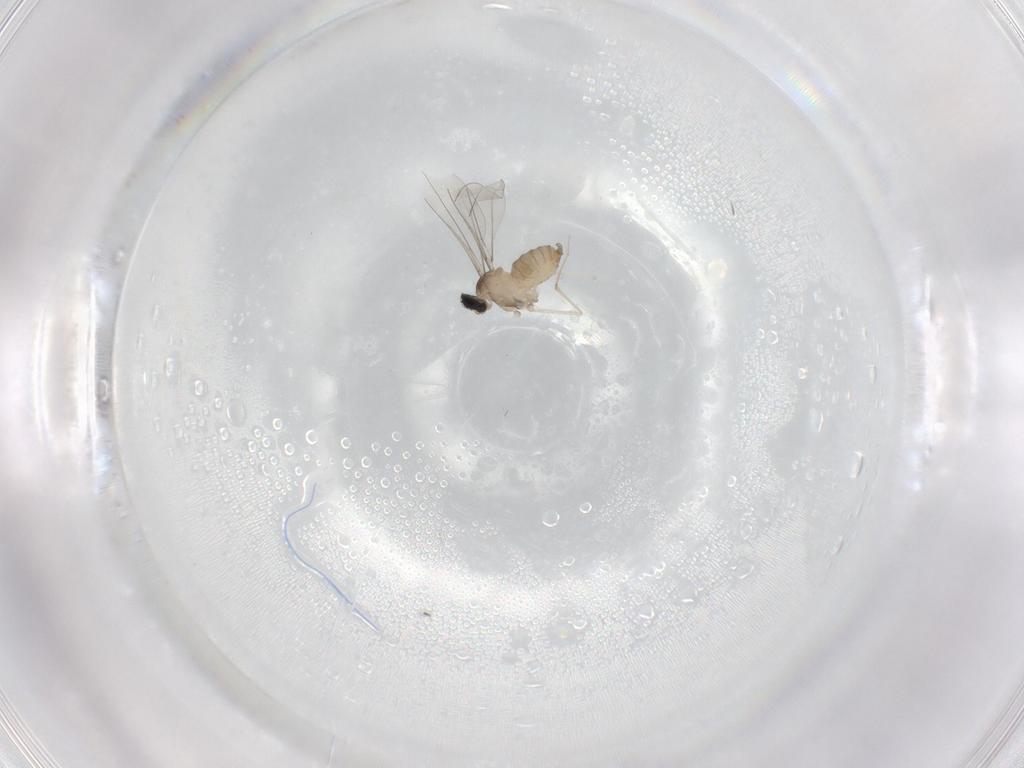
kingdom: Animalia
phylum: Arthropoda
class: Insecta
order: Diptera
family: Cecidomyiidae
